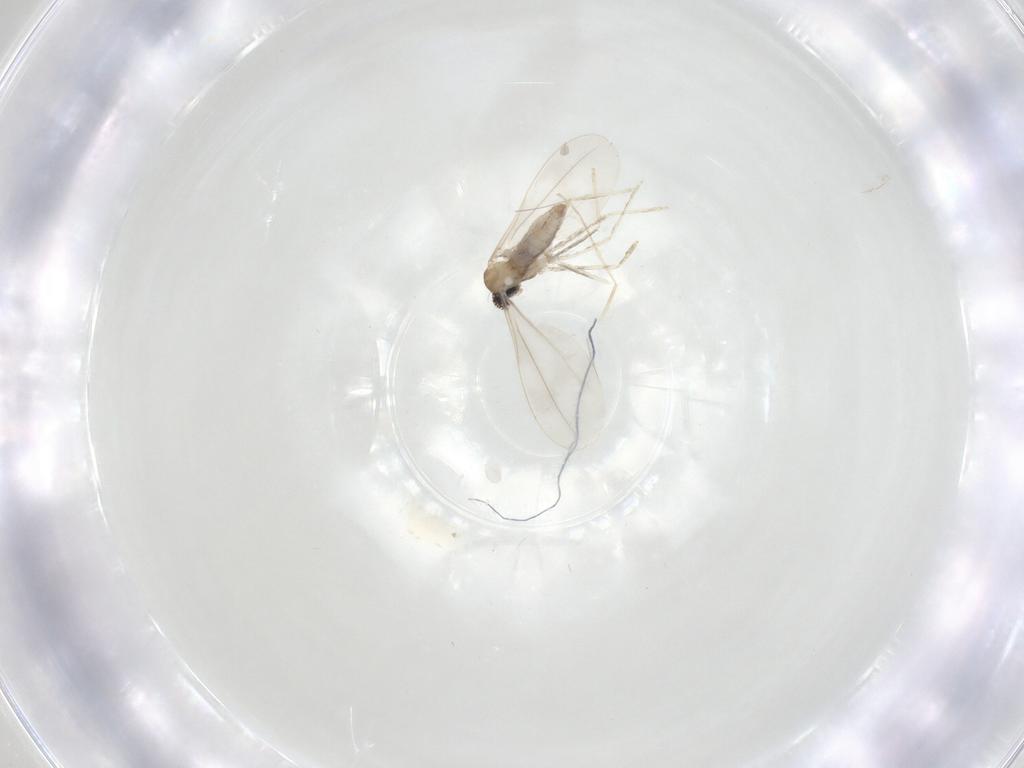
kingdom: Animalia
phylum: Arthropoda
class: Insecta
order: Diptera
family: Cecidomyiidae
